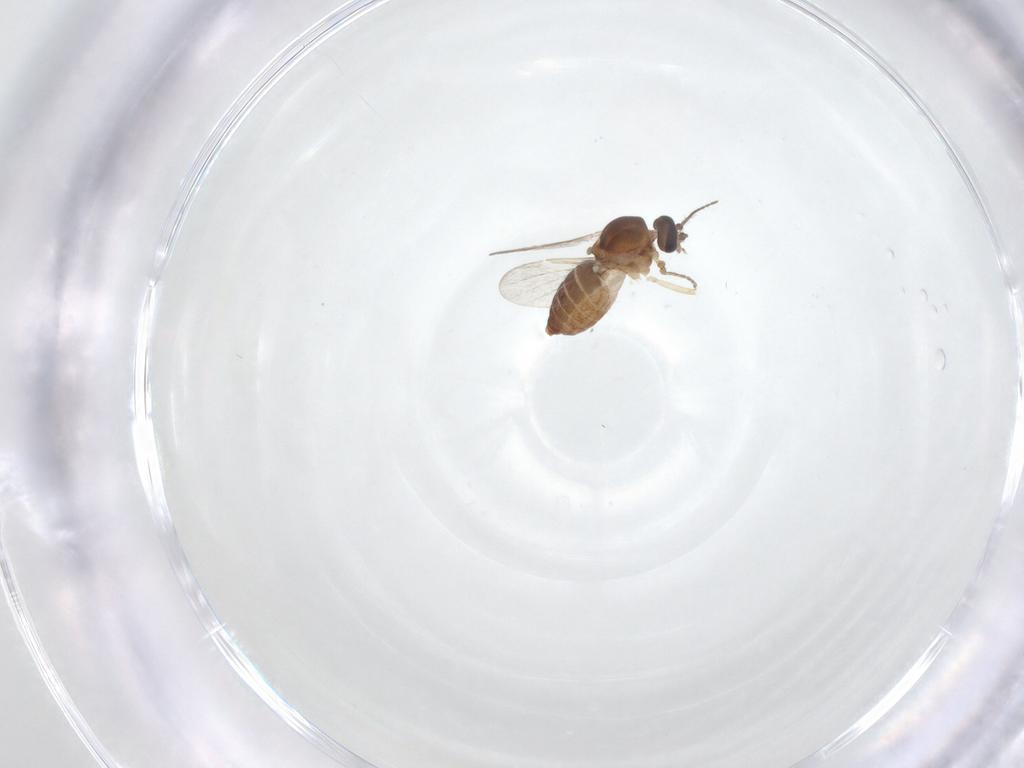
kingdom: Animalia
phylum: Arthropoda
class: Insecta
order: Diptera
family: Ceratopogonidae
